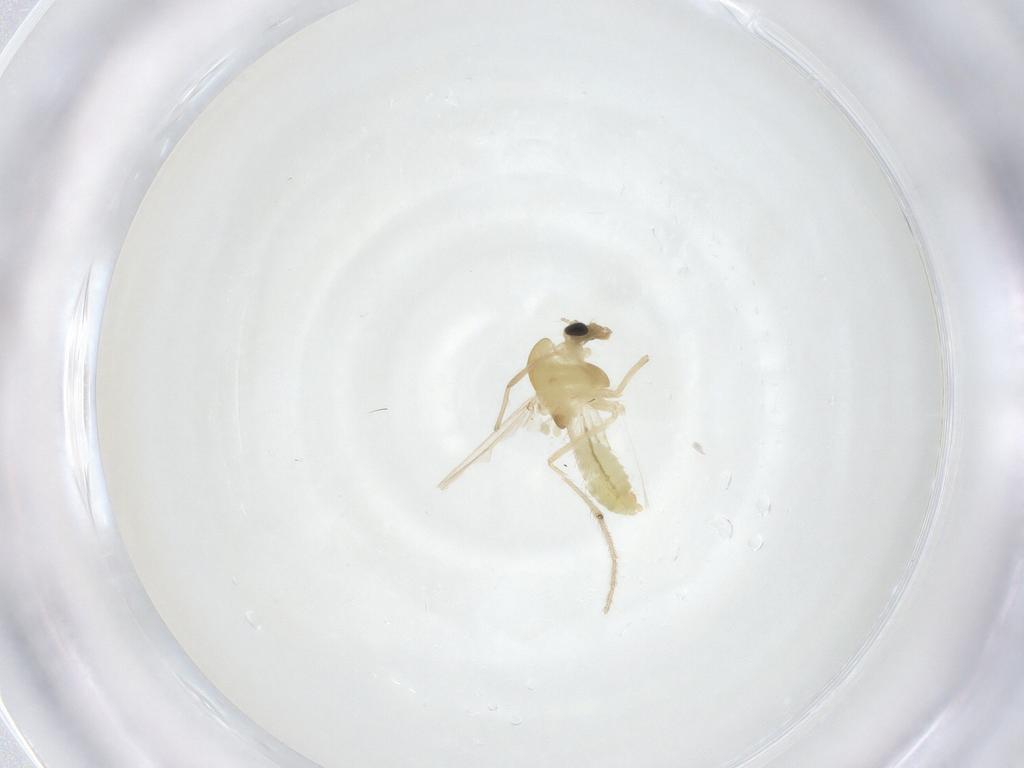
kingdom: Animalia
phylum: Arthropoda
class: Insecta
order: Diptera
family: Chironomidae
